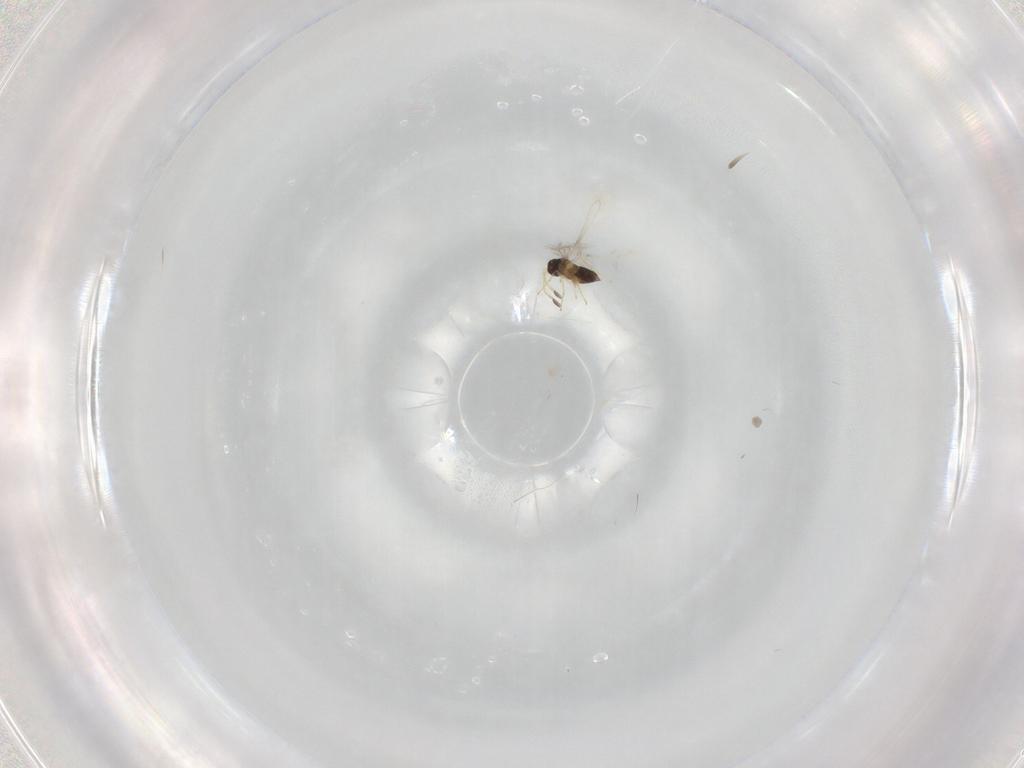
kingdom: Animalia
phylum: Arthropoda
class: Insecta
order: Hymenoptera
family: Mymaridae
